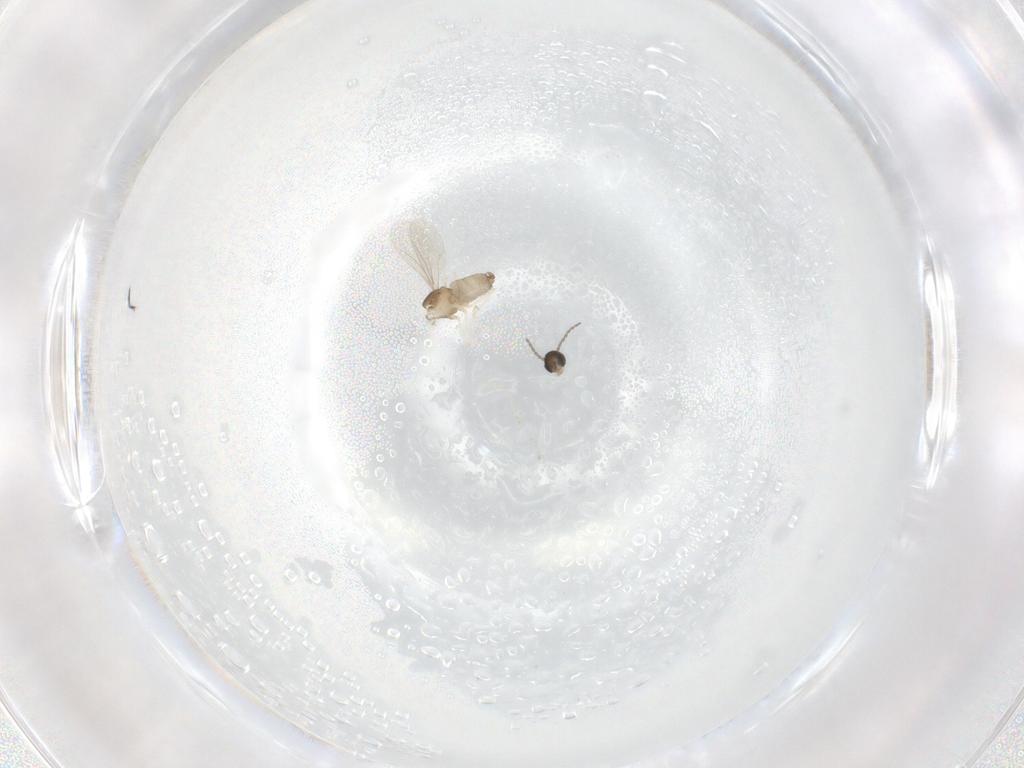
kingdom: Animalia
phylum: Arthropoda
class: Insecta
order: Diptera
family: Cecidomyiidae
